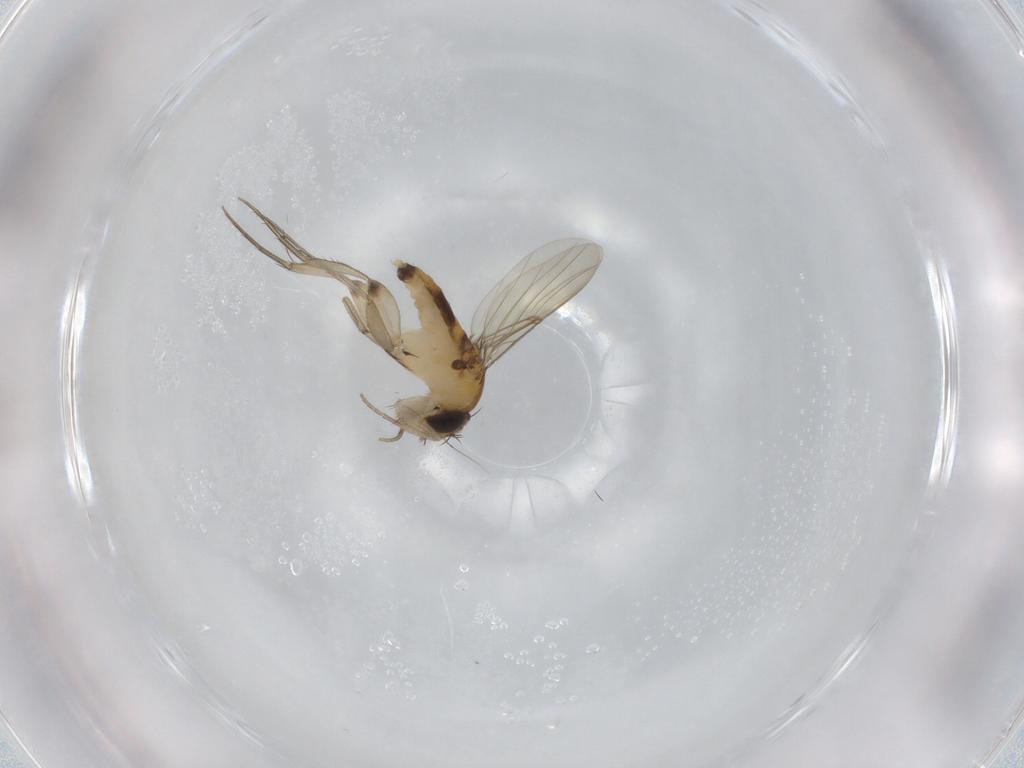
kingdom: Animalia
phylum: Arthropoda
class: Insecta
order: Diptera
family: Phoridae
